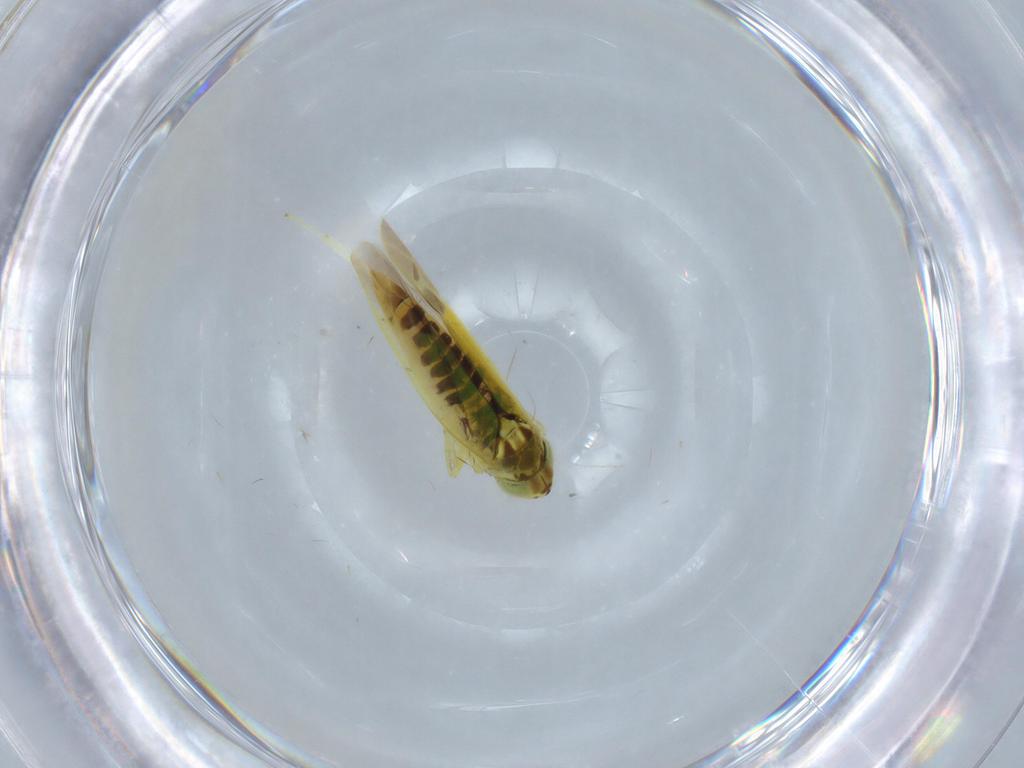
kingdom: Animalia
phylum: Arthropoda
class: Insecta
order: Hemiptera
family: Cicadellidae
